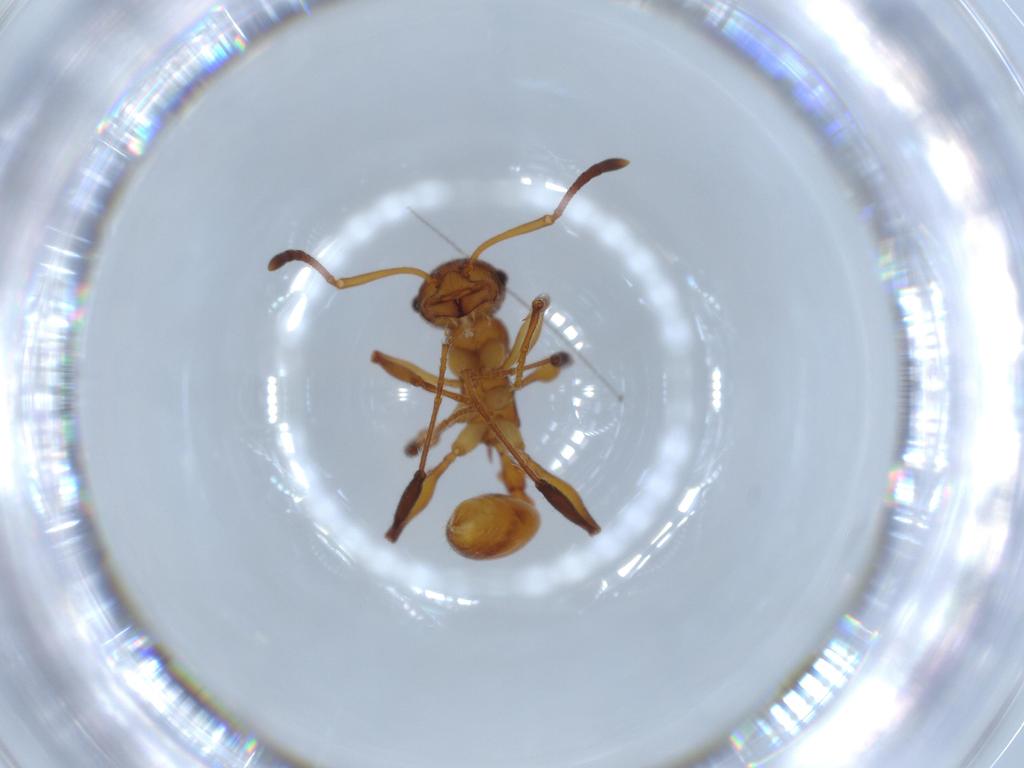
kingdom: Animalia
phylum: Arthropoda
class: Insecta
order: Hymenoptera
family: Formicidae
